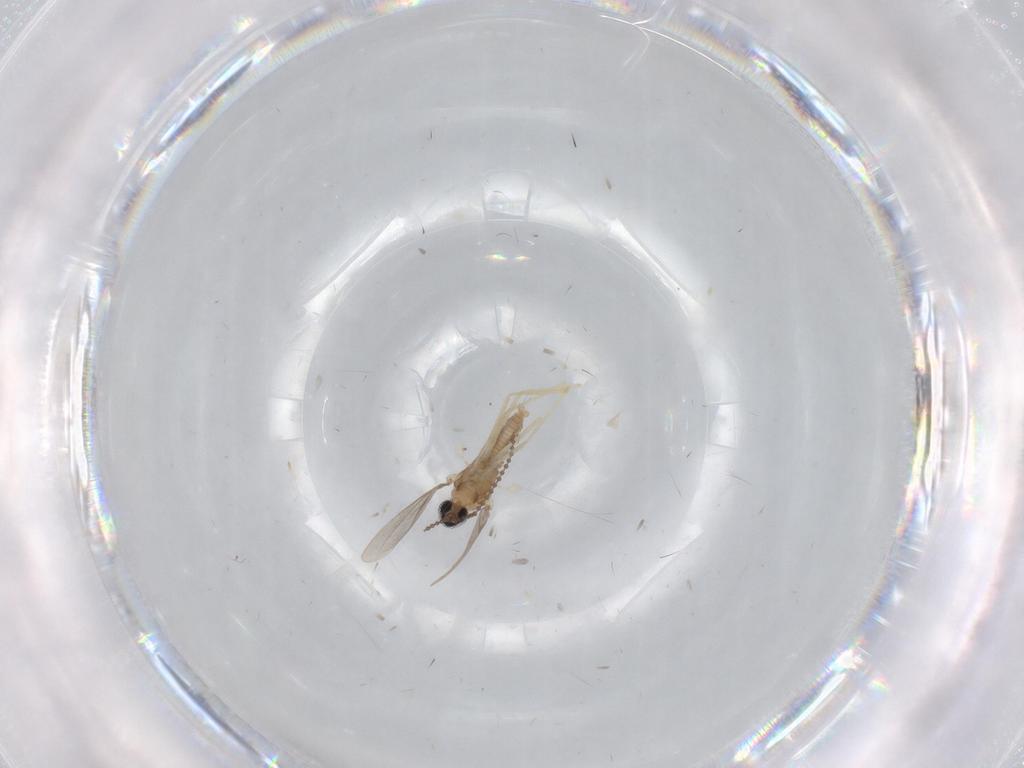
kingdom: Animalia
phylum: Arthropoda
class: Insecta
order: Diptera
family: Cecidomyiidae
